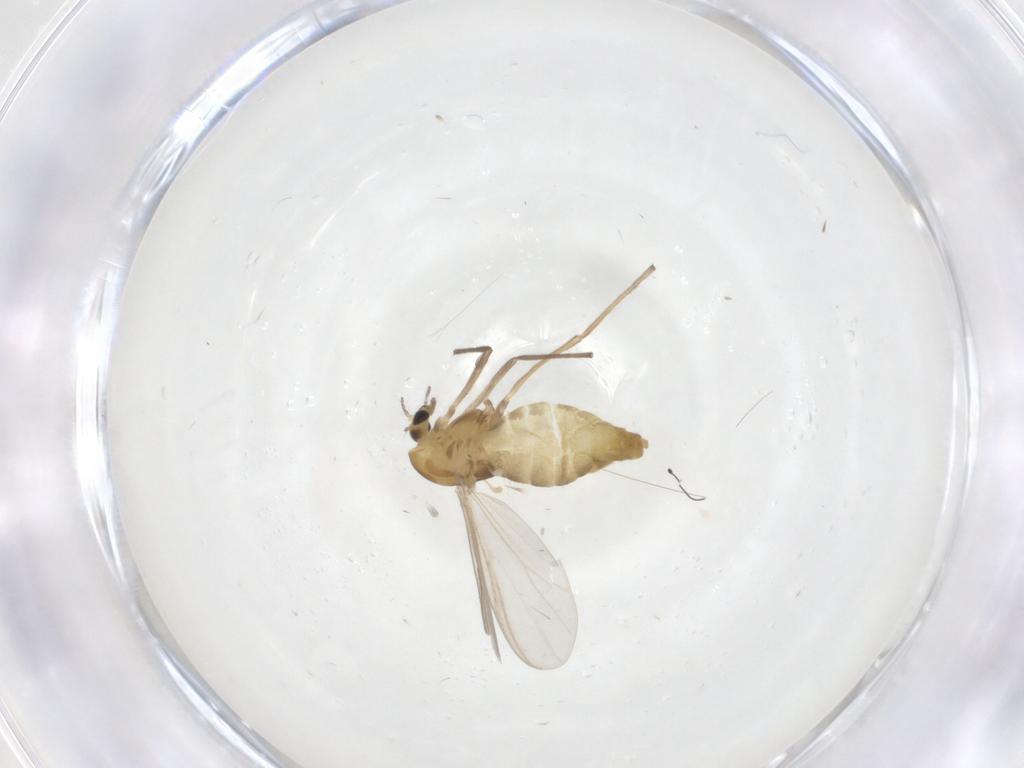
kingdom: Animalia
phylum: Arthropoda
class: Insecta
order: Diptera
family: Chironomidae
